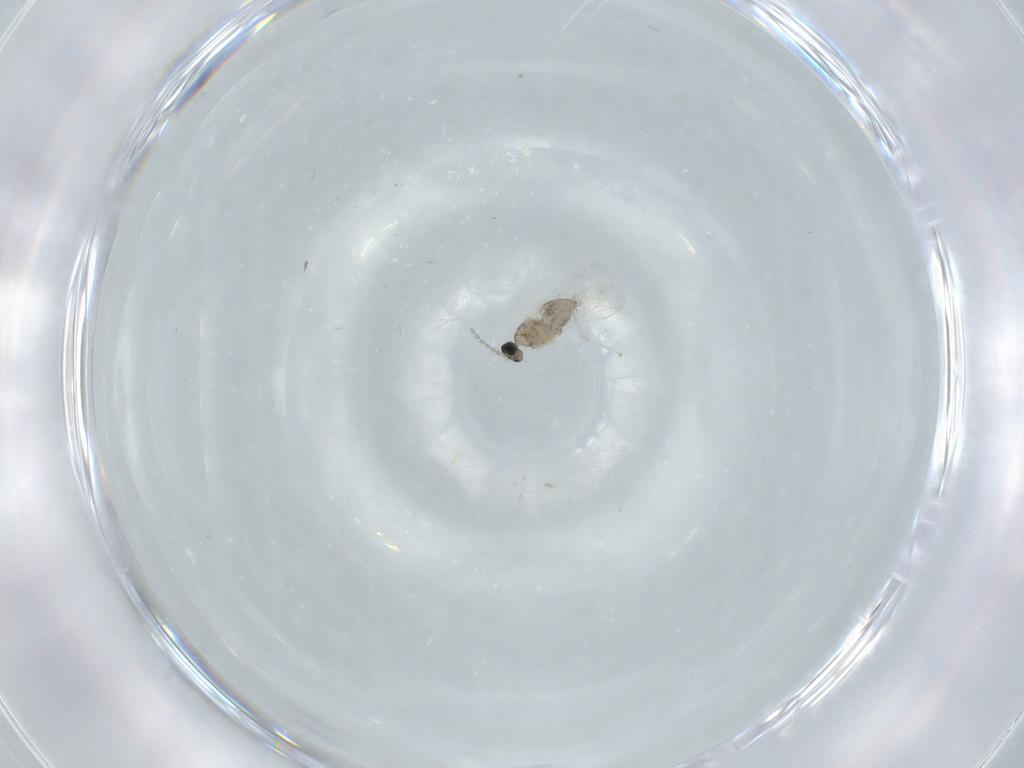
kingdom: Animalia
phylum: Arthropoda
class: Insecta
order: Diptera
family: Cecidomyiidae
